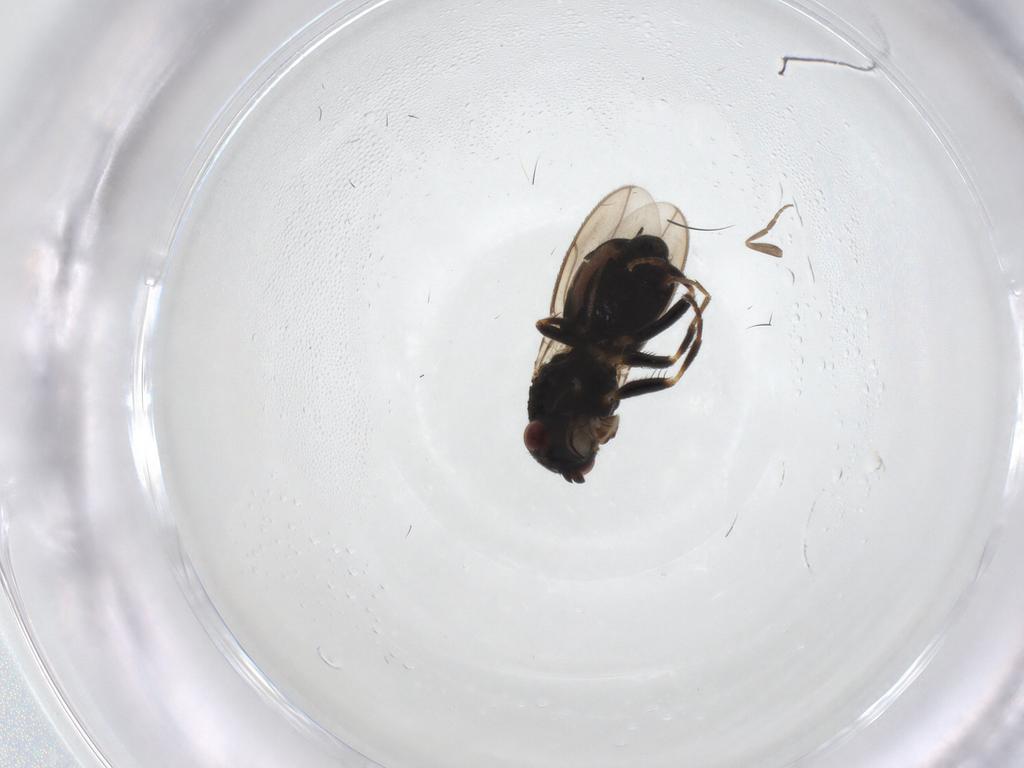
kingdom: Animalia
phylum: Arthropoda
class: Insecta
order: Diptera
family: Sphaeroceridae
